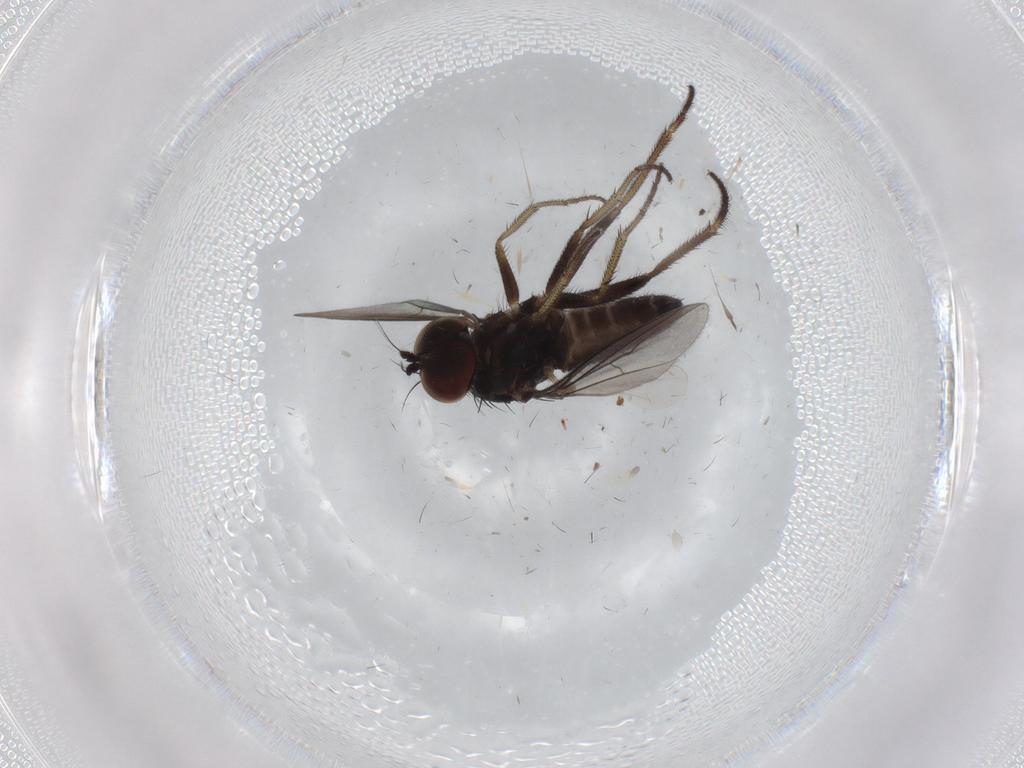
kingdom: Animalia
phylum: Arthropoda
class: Insecta
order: Diptera
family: Dolichopodidae
